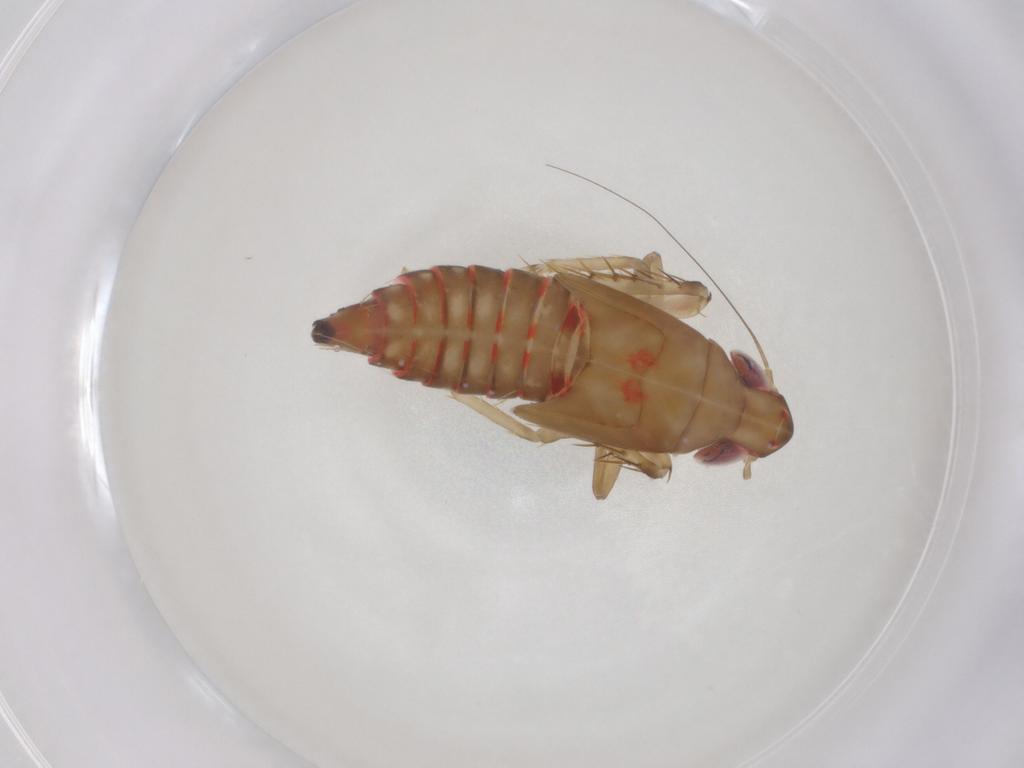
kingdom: Animalia
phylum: Arthropoda
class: Insecta
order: Hemiptera
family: Cicadellidae
